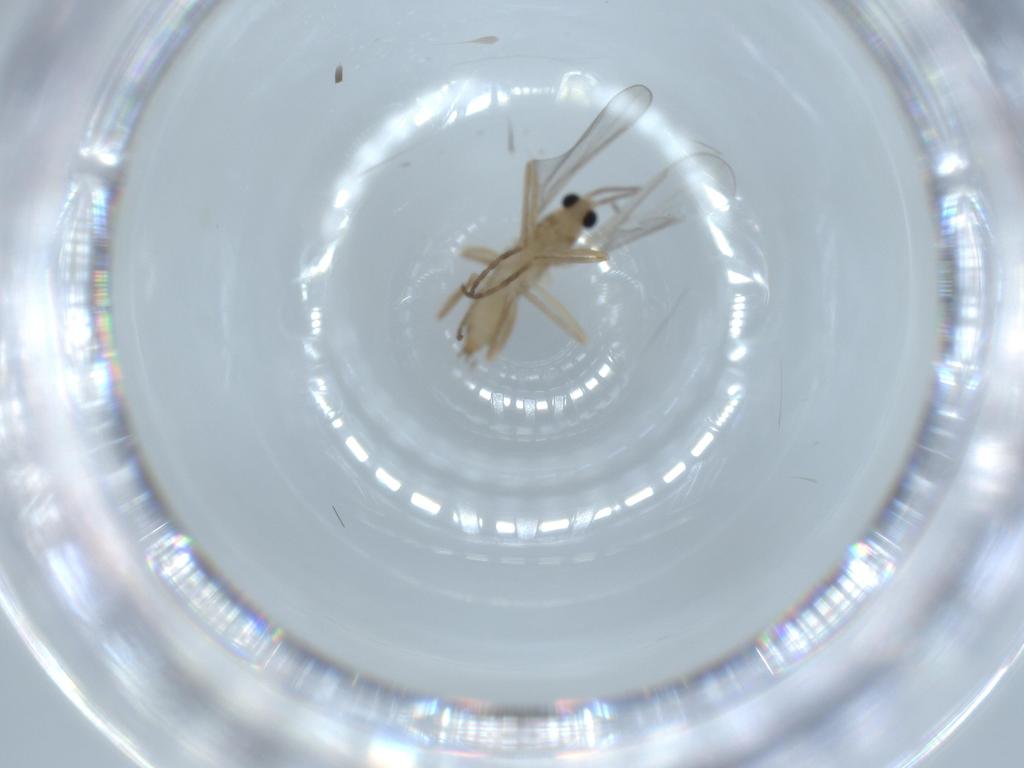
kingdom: Animalia
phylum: Arthropoda
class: Insecta
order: Diptera
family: Cecidomyiidae
